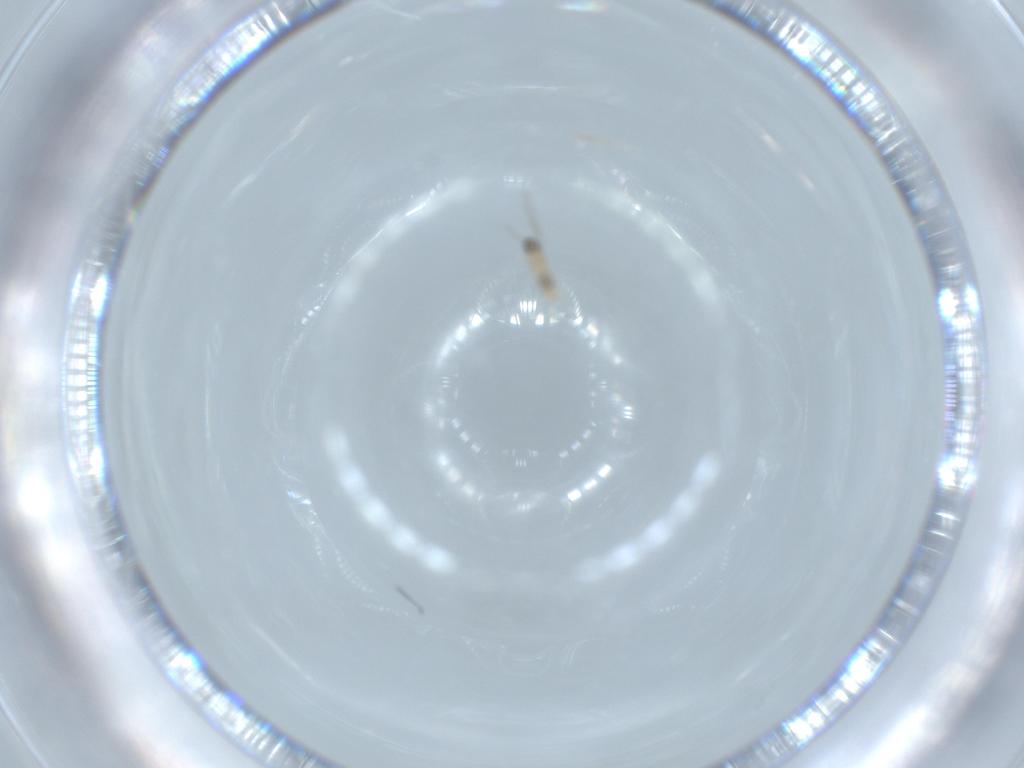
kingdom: Animalia
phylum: Arthropoda
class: Insecta
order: Diptera
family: Cecidomyiidae
